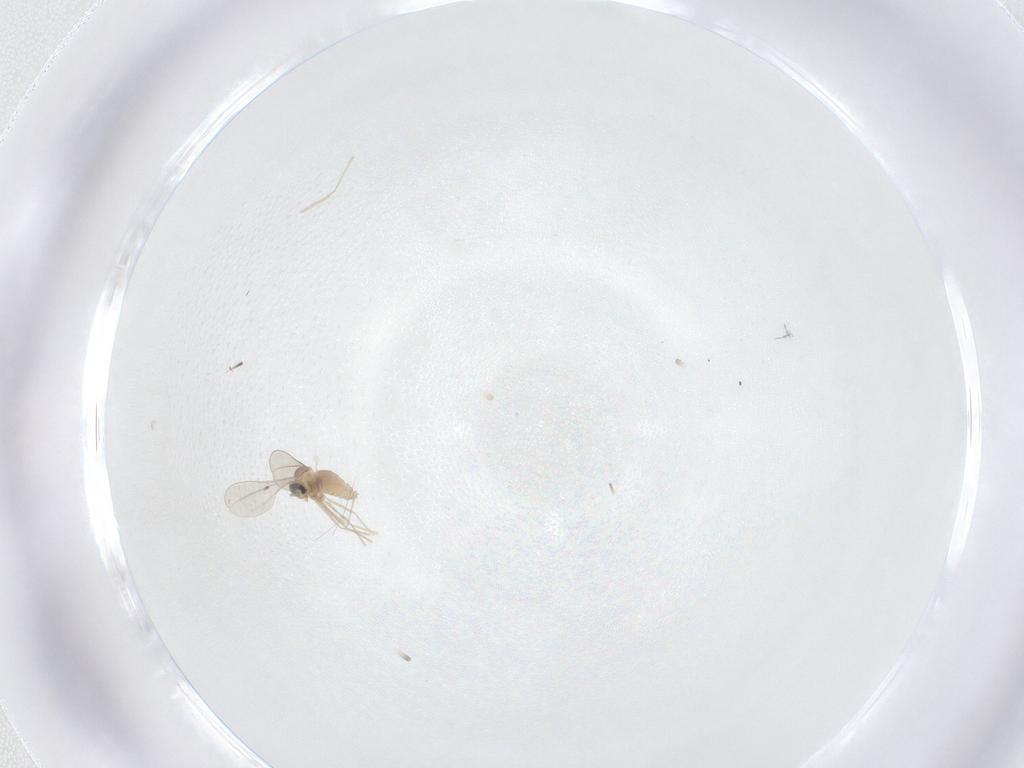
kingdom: Animalia
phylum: Arthropoda
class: Insecta
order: Diptera
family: Cecidomyiidae
